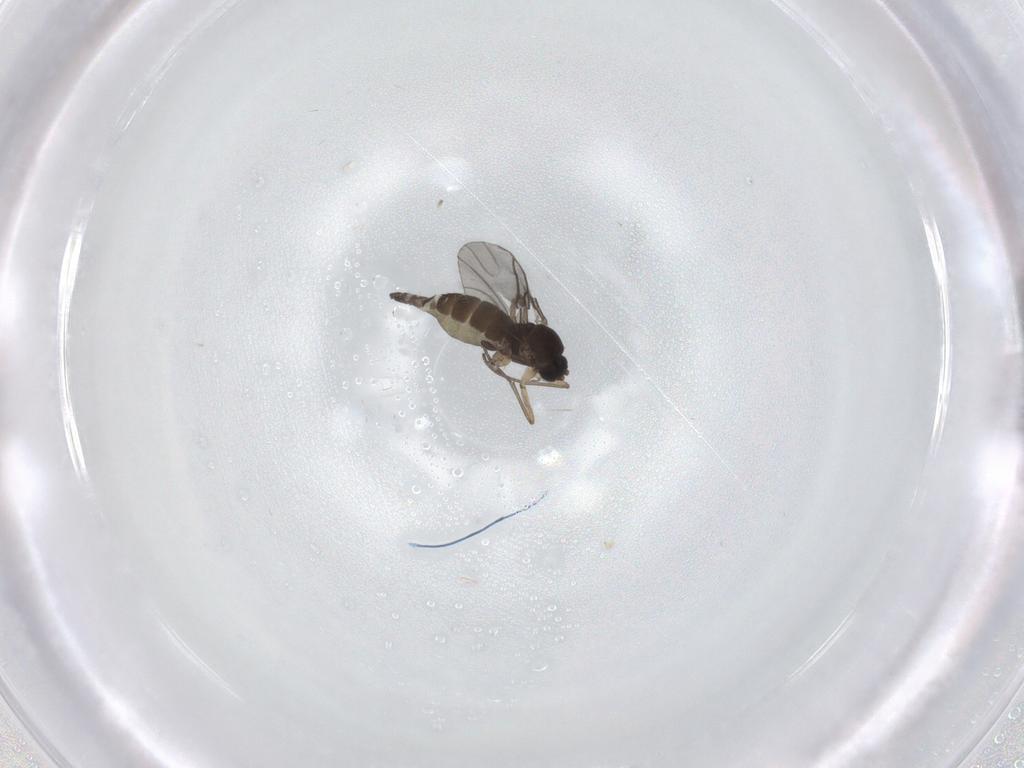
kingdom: Animalia
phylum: Arthropoda
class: Insecta
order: Diptera
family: Sciaridae
